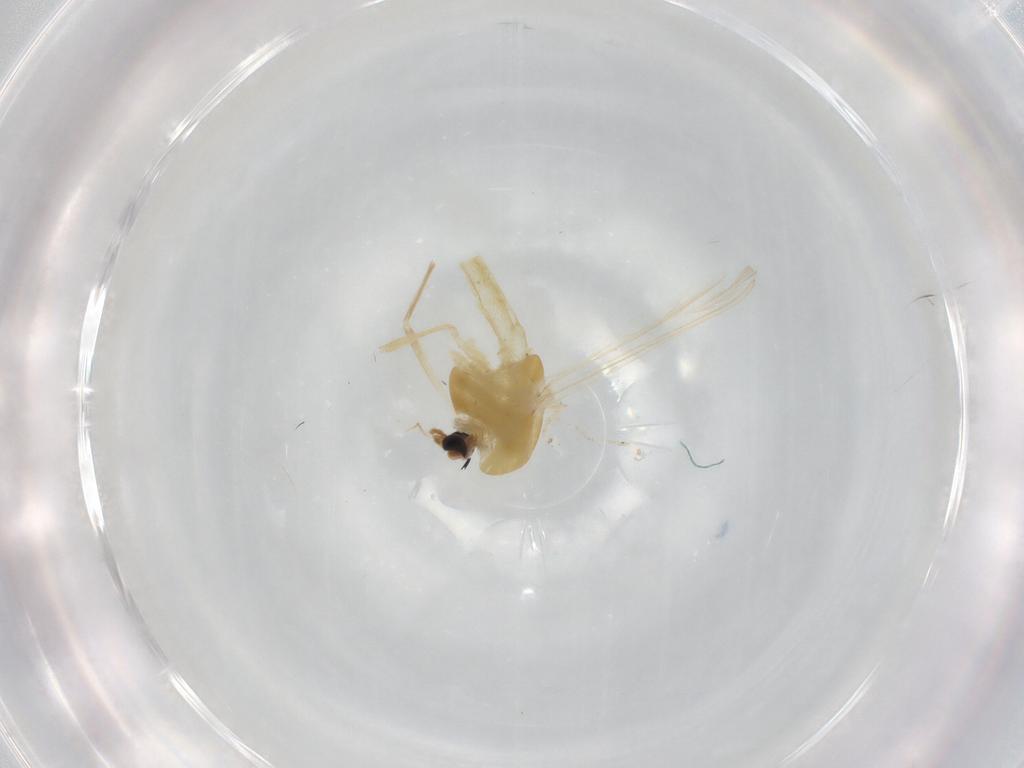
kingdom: Animalia
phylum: Arthropoda
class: Insecta
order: Diptera
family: Chironomidae
